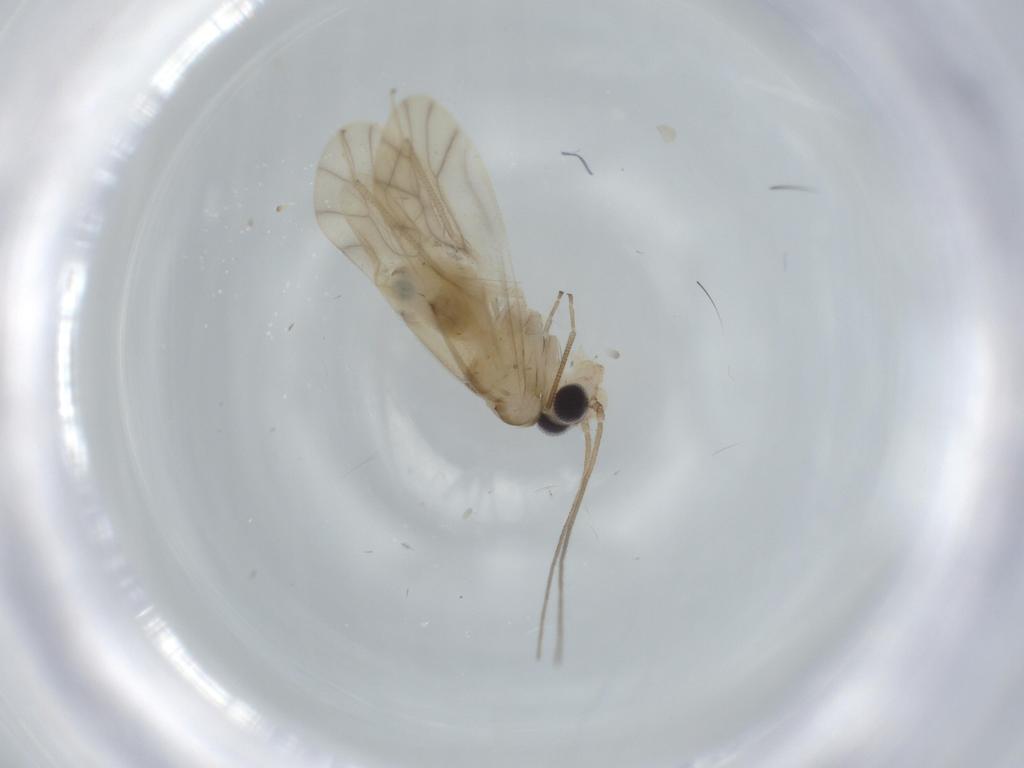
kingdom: Animalia
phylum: Arthropoda
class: Insecta
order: Psocodea
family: Caeciliusidae
